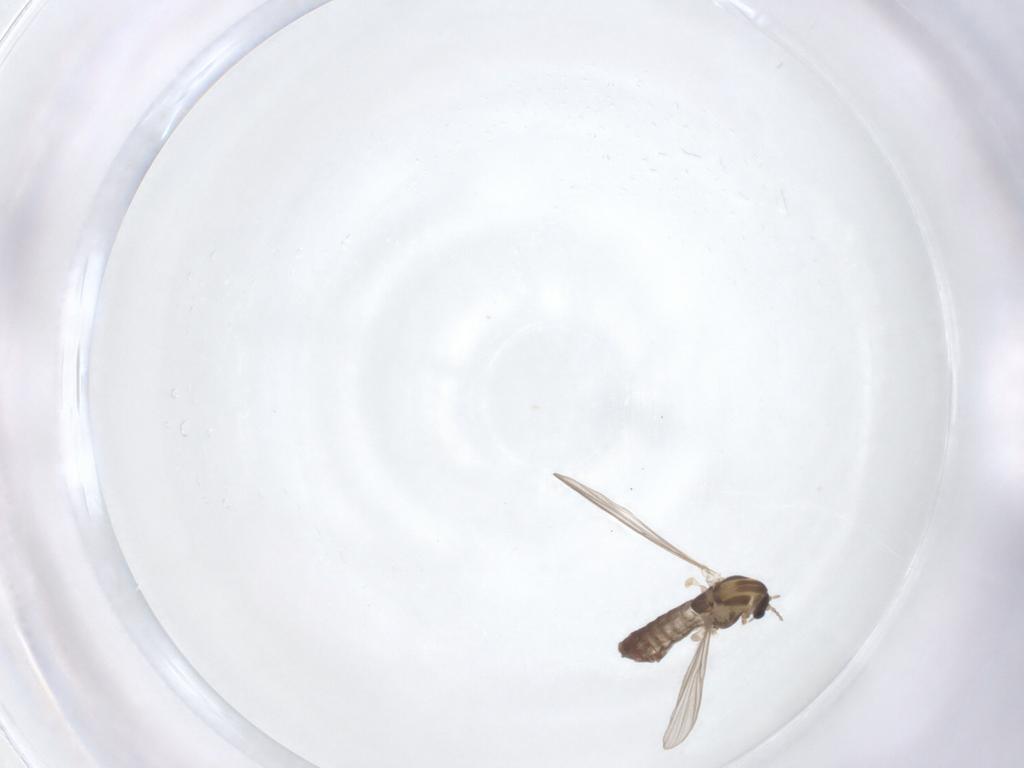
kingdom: Animalia
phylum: Arthropoda
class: Insecta
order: Diptera
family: Chironomidae
